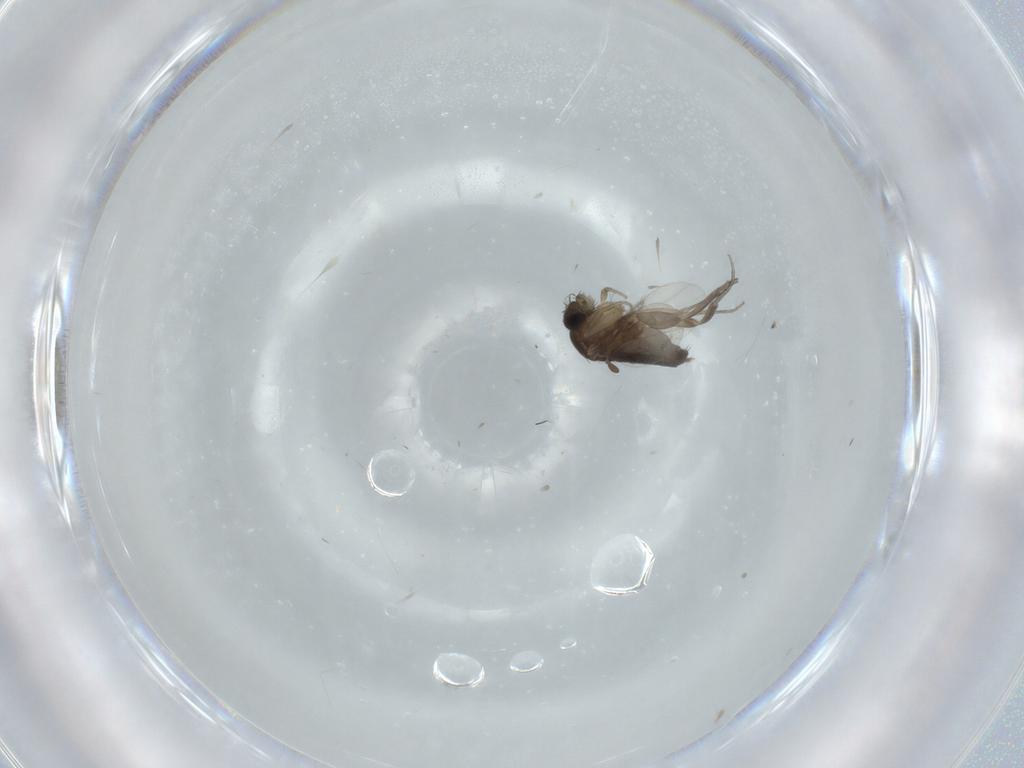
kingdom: Animalia
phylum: Arthropoda
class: Insecta
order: Diptera
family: Phoridae
